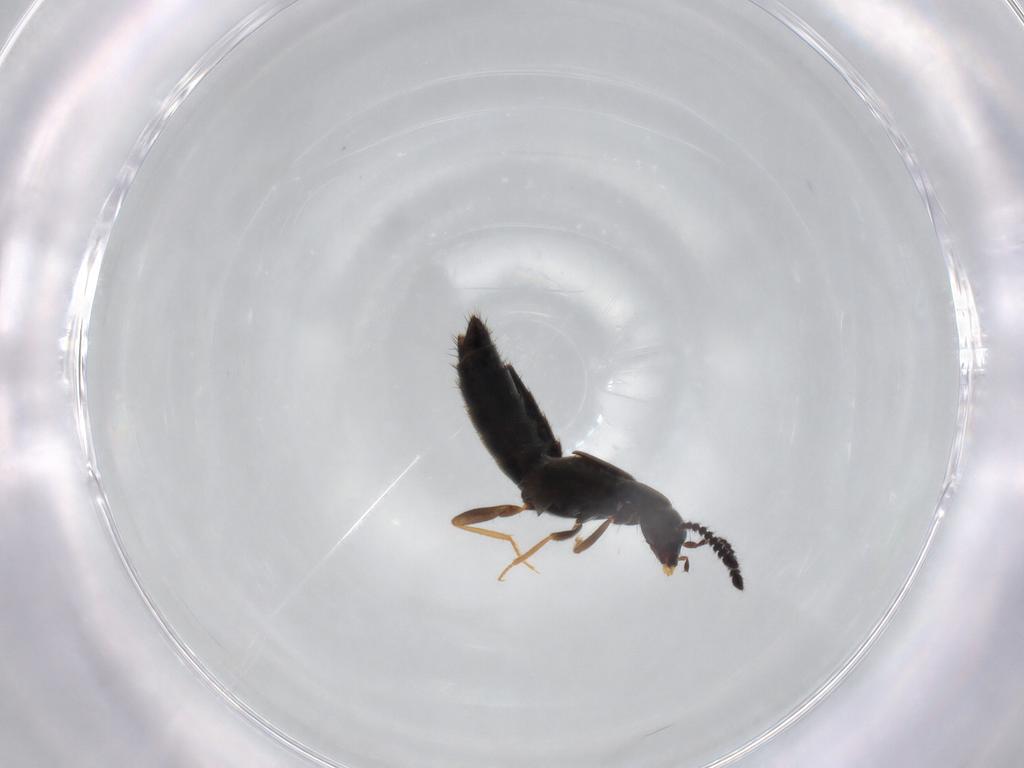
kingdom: Animalia
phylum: Arthropoda
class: Insecta
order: Coleoptera
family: Staphylinidae
